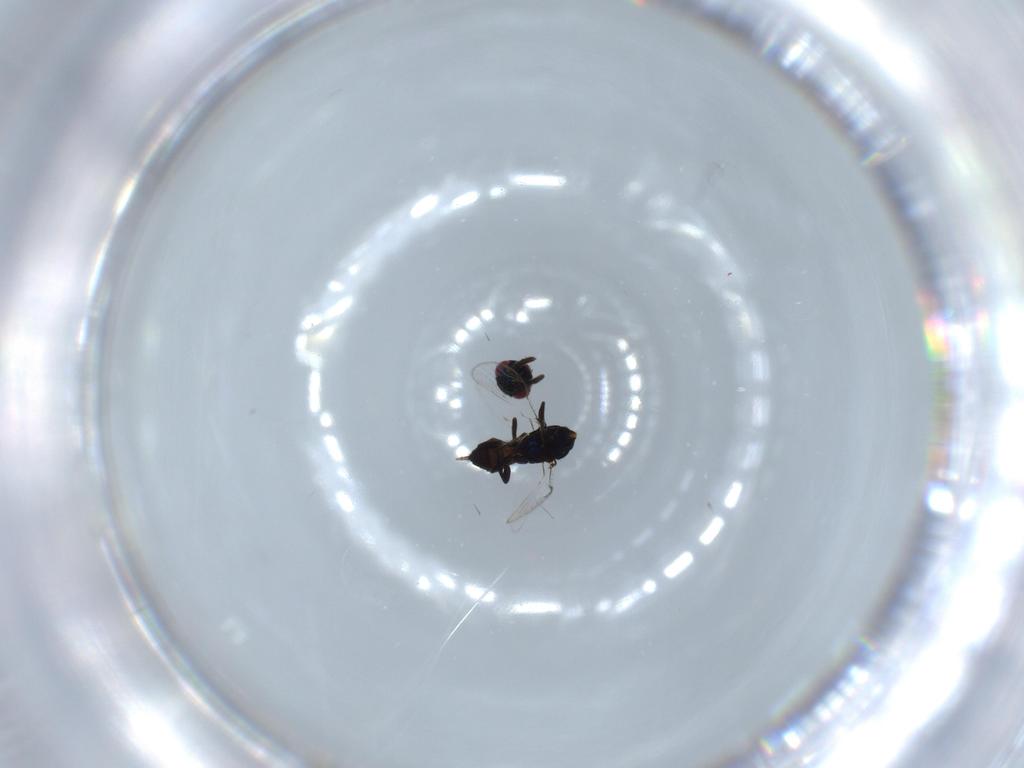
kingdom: Animalia
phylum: Arthropoda
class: Insecta
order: Hymenoptera
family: Pteromalidae
